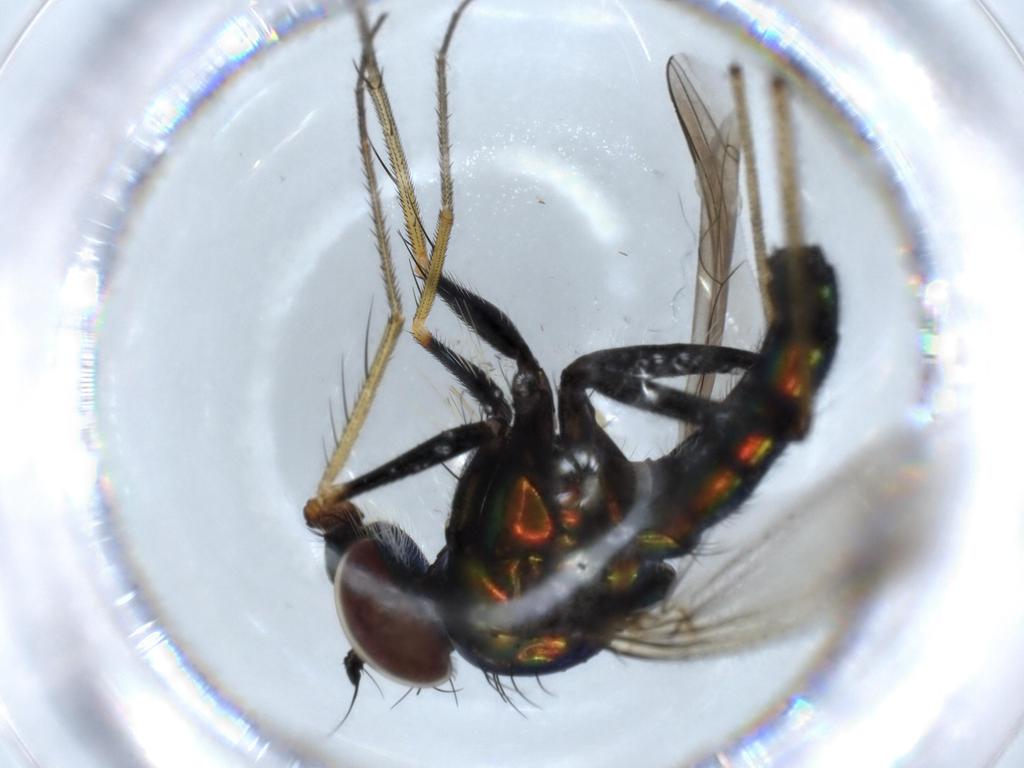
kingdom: Animalia
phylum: Arthropoda
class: Insecta
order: Diptera
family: Dolichopodidae
